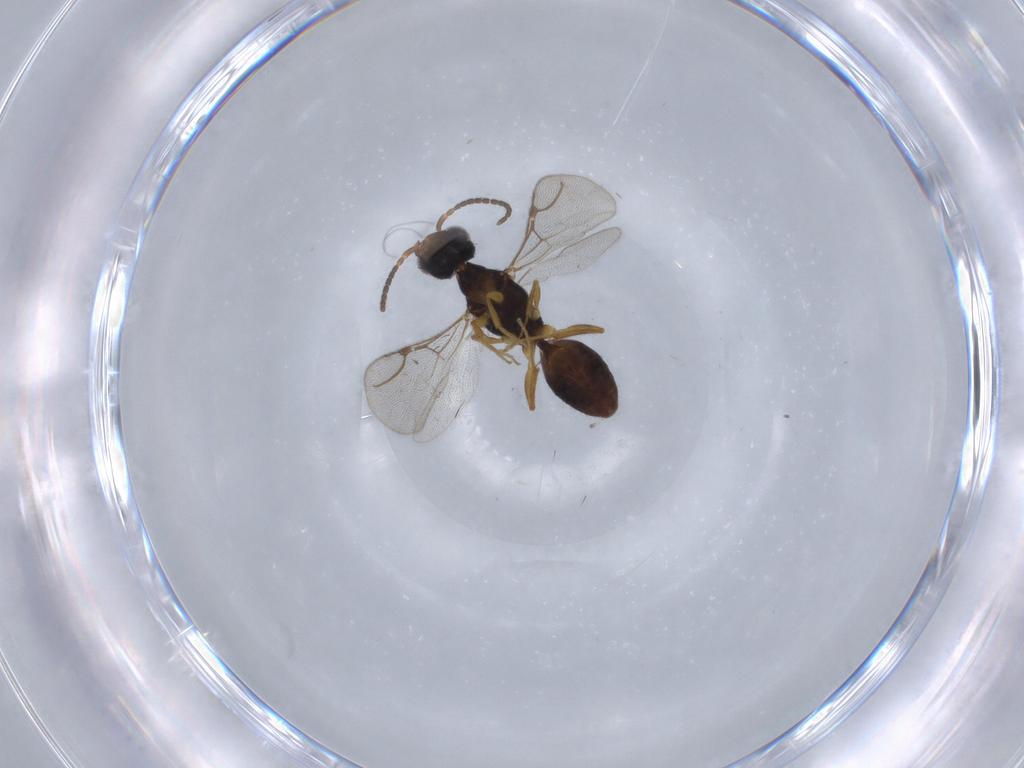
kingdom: Animalia
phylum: Arthropoda
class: Insecta
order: Hymenoptera
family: Bethylidae
